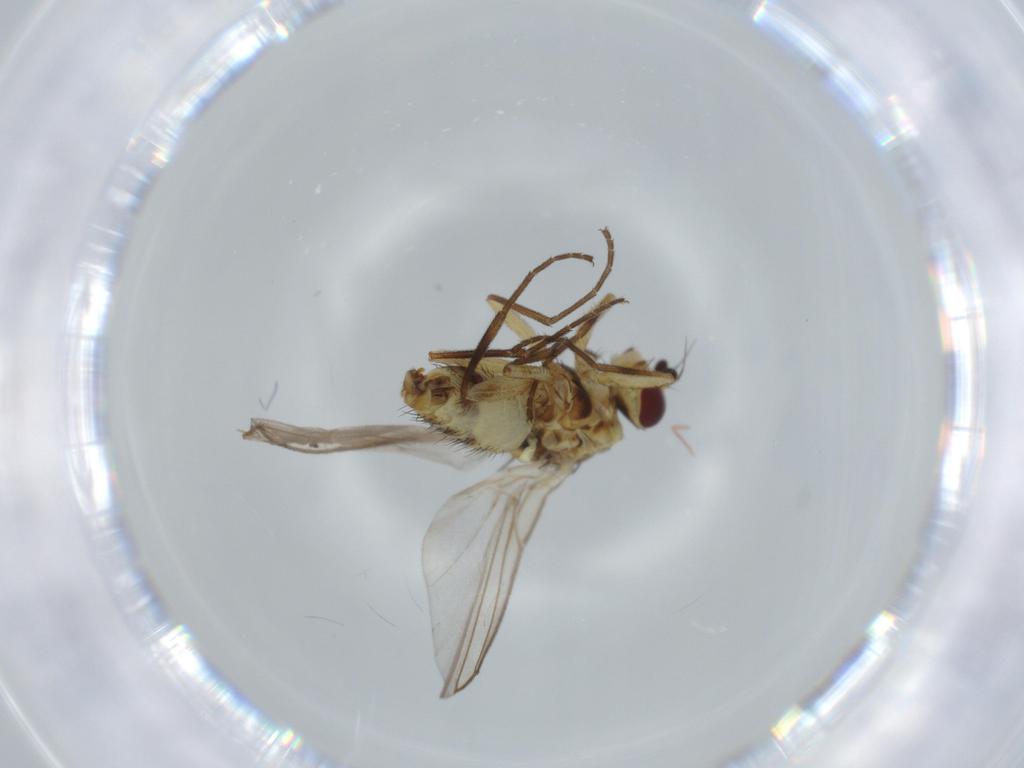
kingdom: Animalia
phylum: Arthropoda
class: Insecta
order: Diptera
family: Chironomidae
